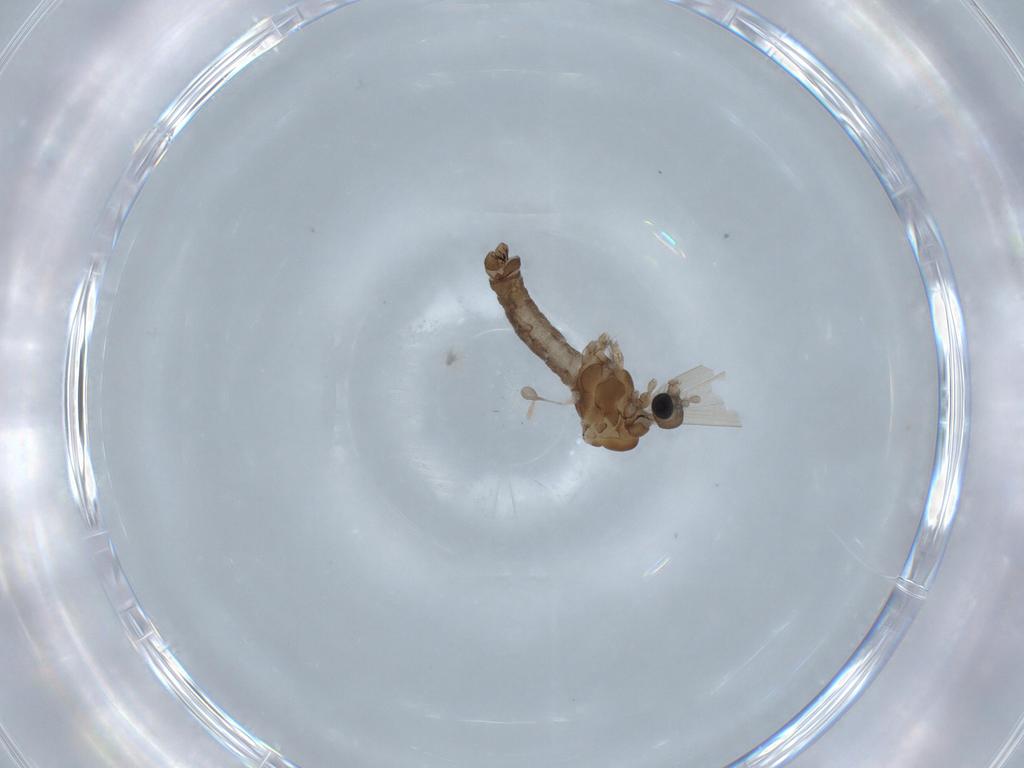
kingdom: Animalia
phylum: Arthropoda
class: Insecta
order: Diptera
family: Limoniidae
